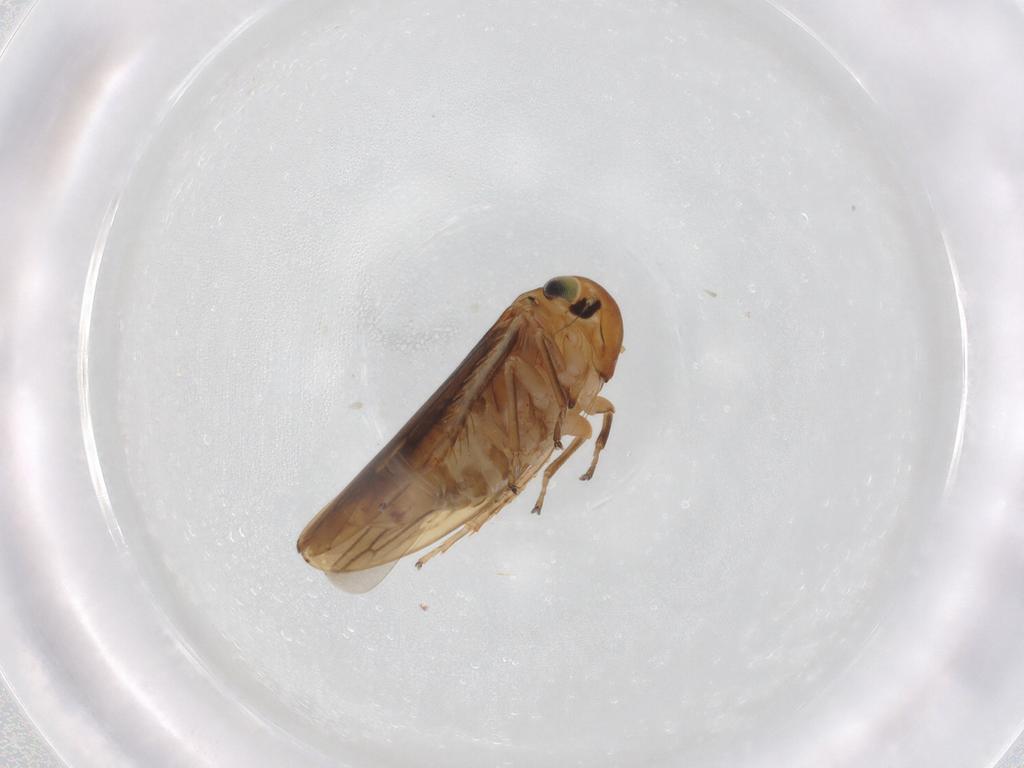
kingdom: Animalia
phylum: Arthropoda
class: Insecta
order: Hemiptera
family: Cicadellidae
